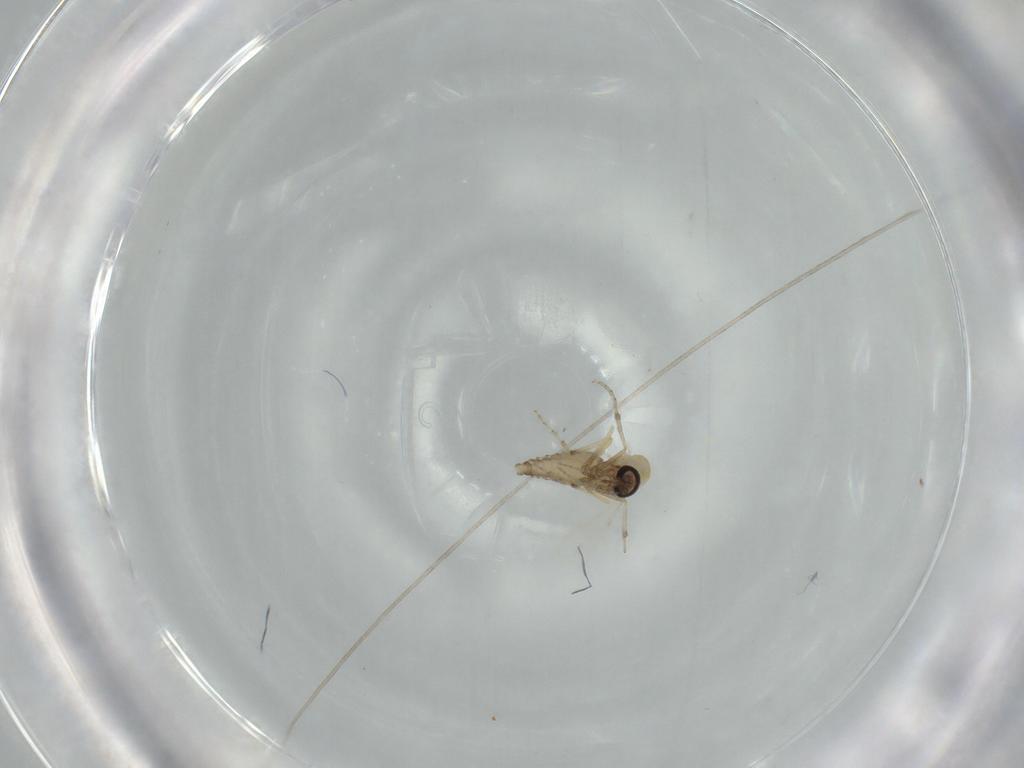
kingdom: Animalia
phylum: Arthropoda
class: Insecta
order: Diptera
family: Ceratopogonidae
